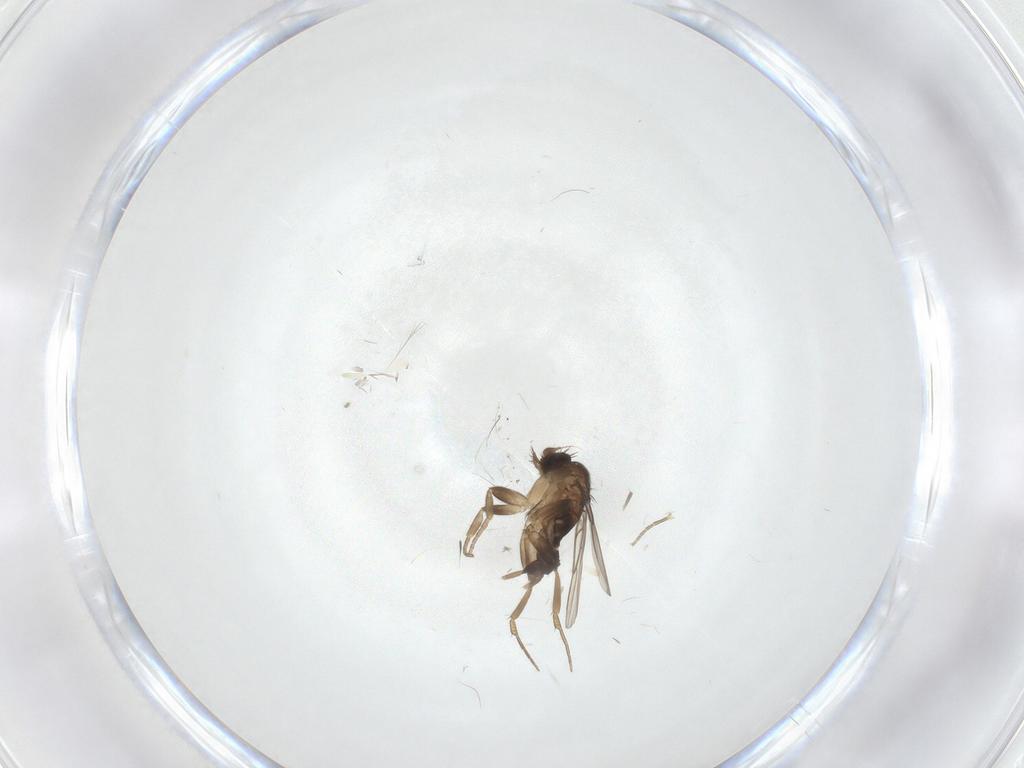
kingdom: Animalia
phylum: Arthropoda
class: Insecta
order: Diptera
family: Phoridae
